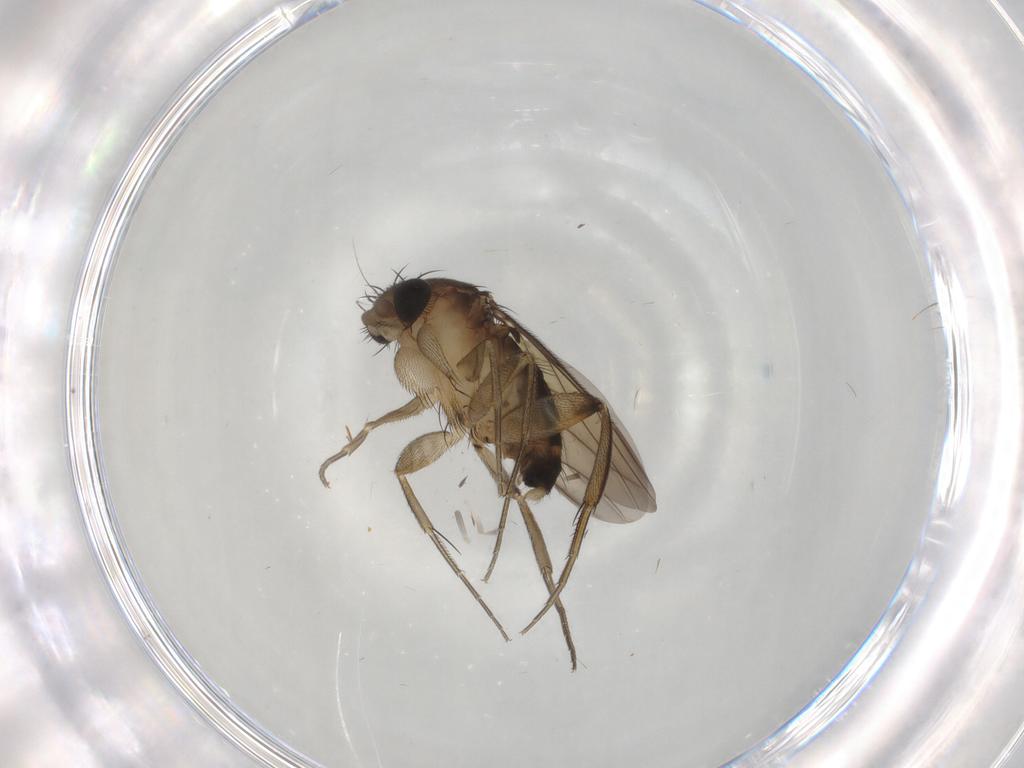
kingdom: Animalia
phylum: Arthropoda
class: Insecta
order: Diptera
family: Phoridae
